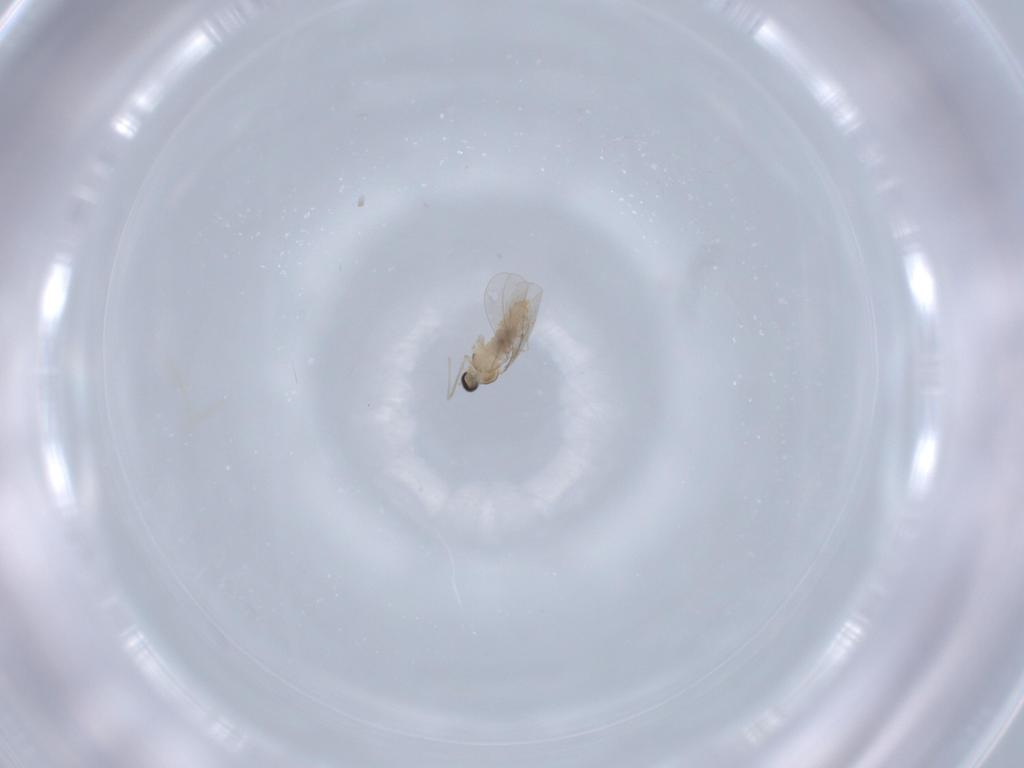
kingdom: Animalia
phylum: Arthropoda
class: Insecta
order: Diptera
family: Cecidomyiidae
